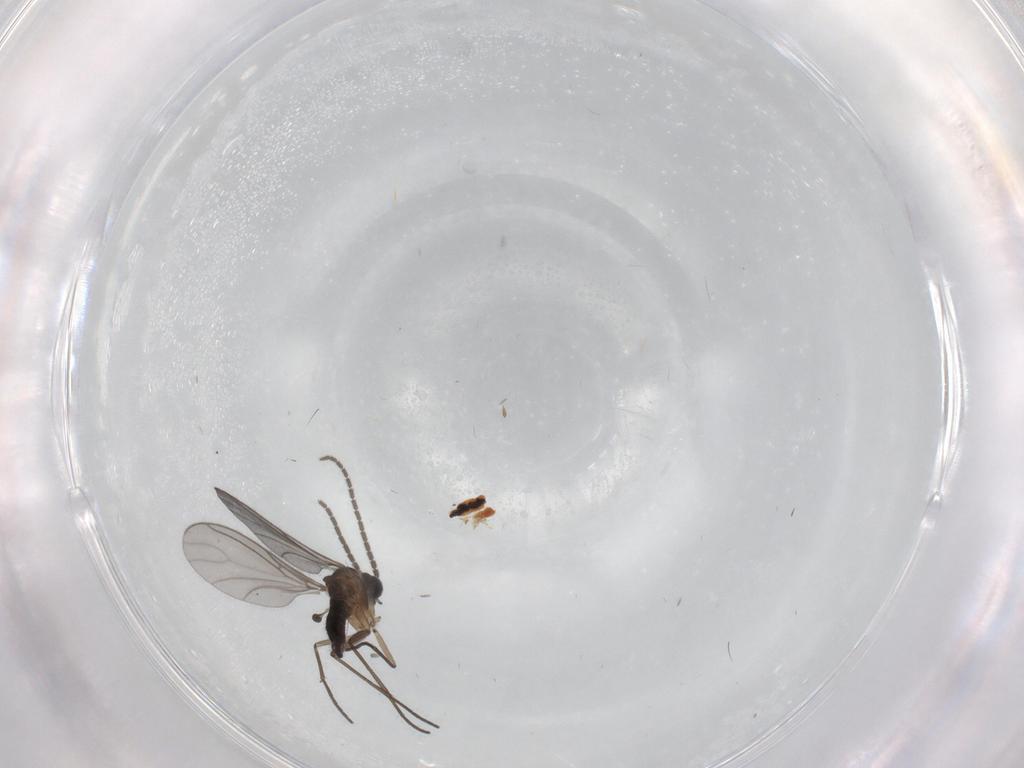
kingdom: Animalia
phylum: Arthropoda
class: Insecta
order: Diptera
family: Sciaridae
